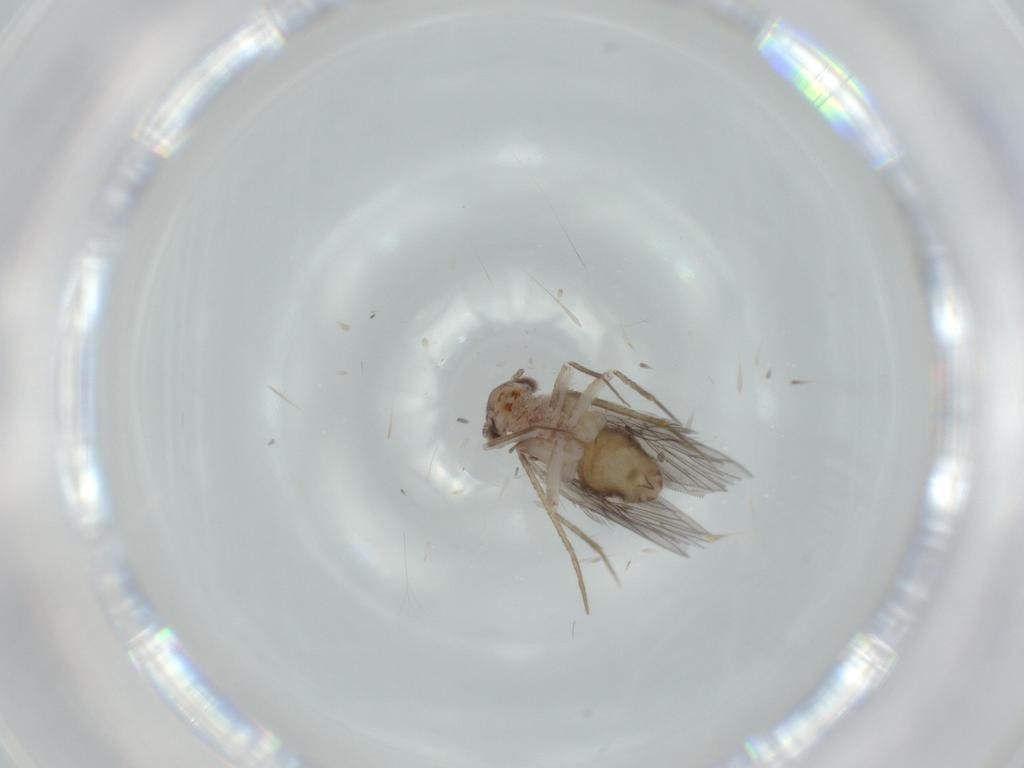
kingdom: Animalia
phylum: Arthropoda
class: Insecta
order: Psocodea
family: Lepidopsocidae
